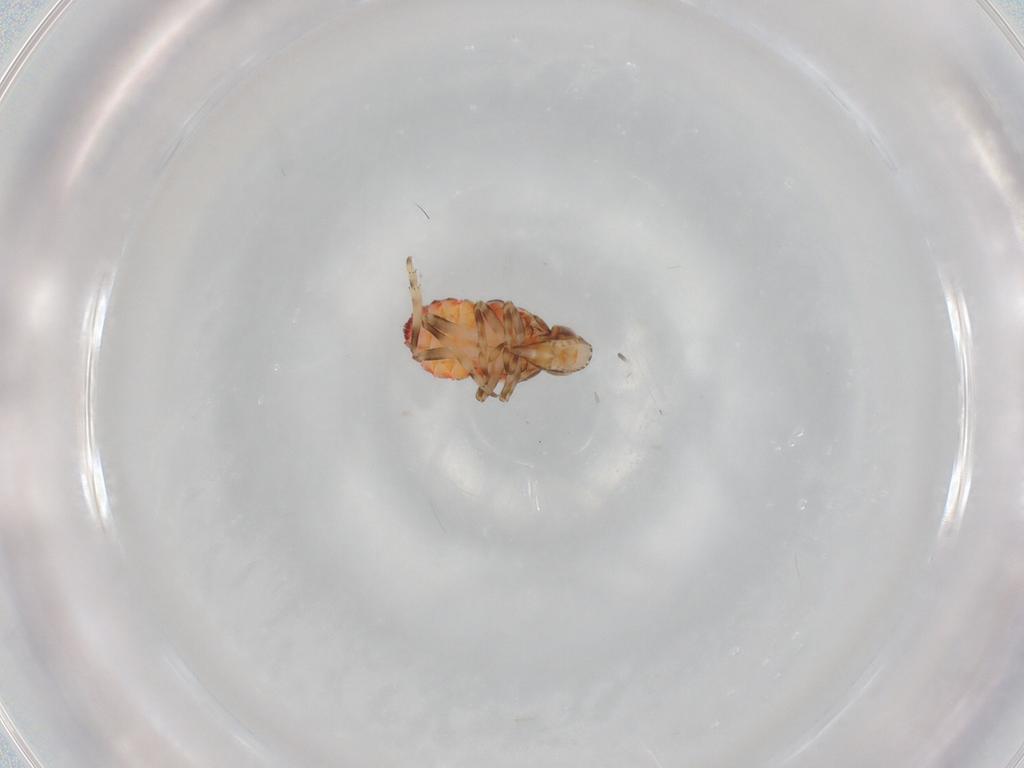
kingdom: Animalia
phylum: Arthropoda
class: Insecta
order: Hemiptera
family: Tropiduchidae
